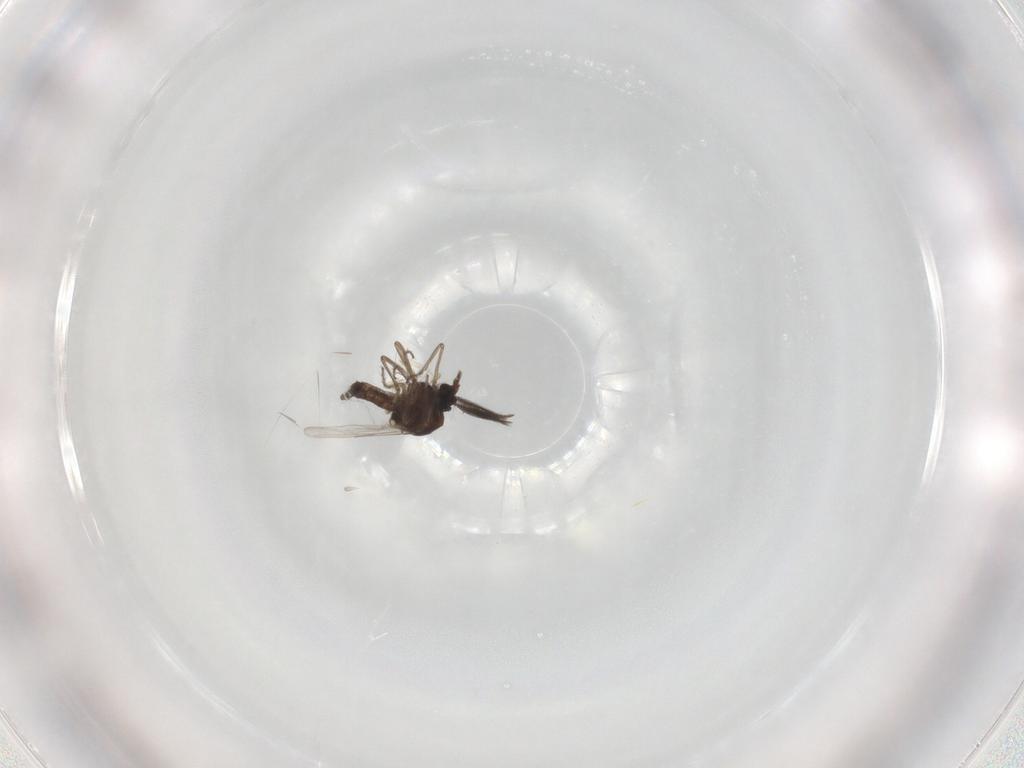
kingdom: Animalia
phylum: Arthropoda
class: Insecta
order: Diptera
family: Ceratopogonidae
